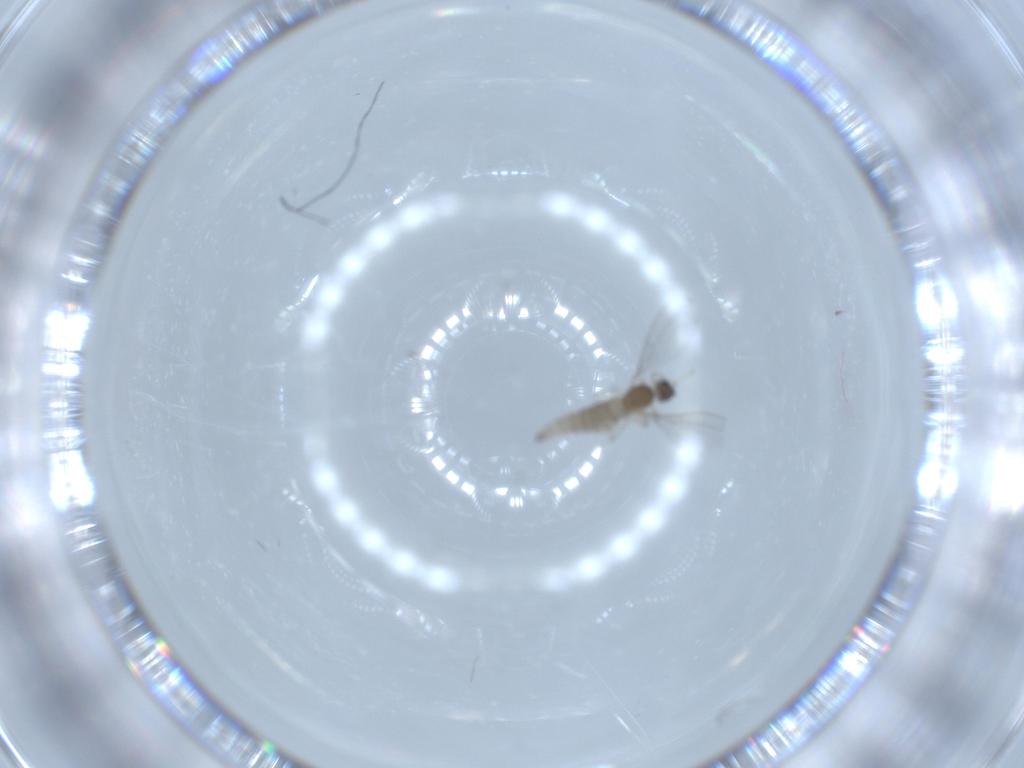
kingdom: Animalia
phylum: Arthropoda
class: Insecta
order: Diptera
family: Cecidomyiidae
